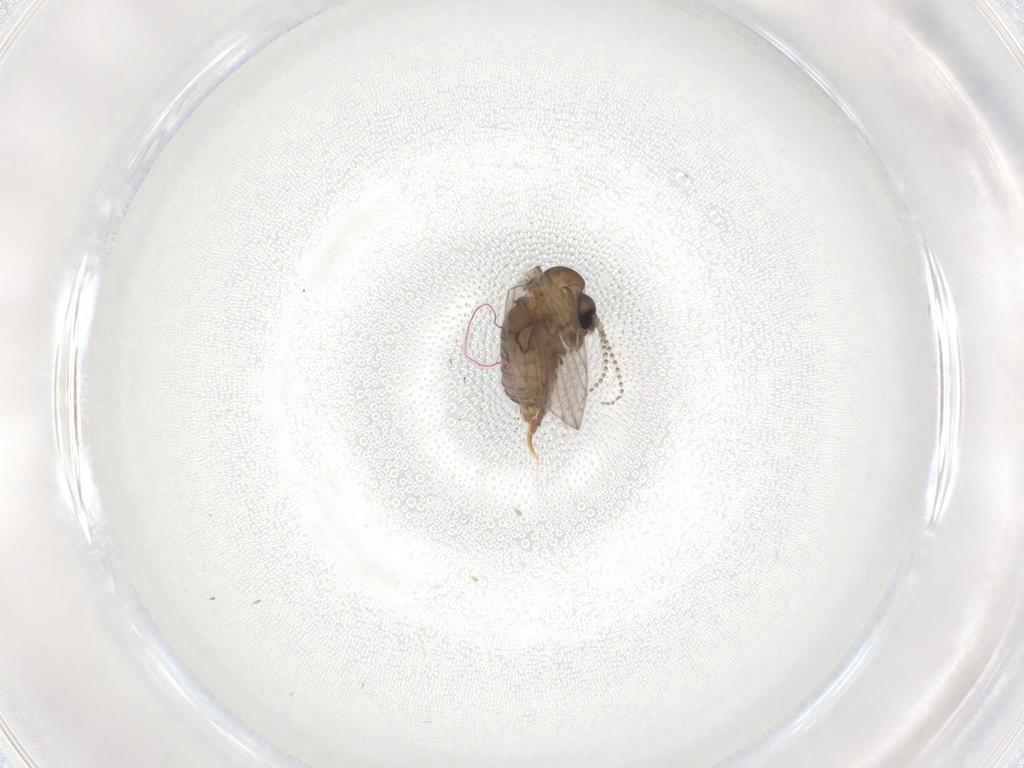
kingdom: Animalia
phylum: Arthropoda
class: Insecta
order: Diptera
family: Psychodidae
